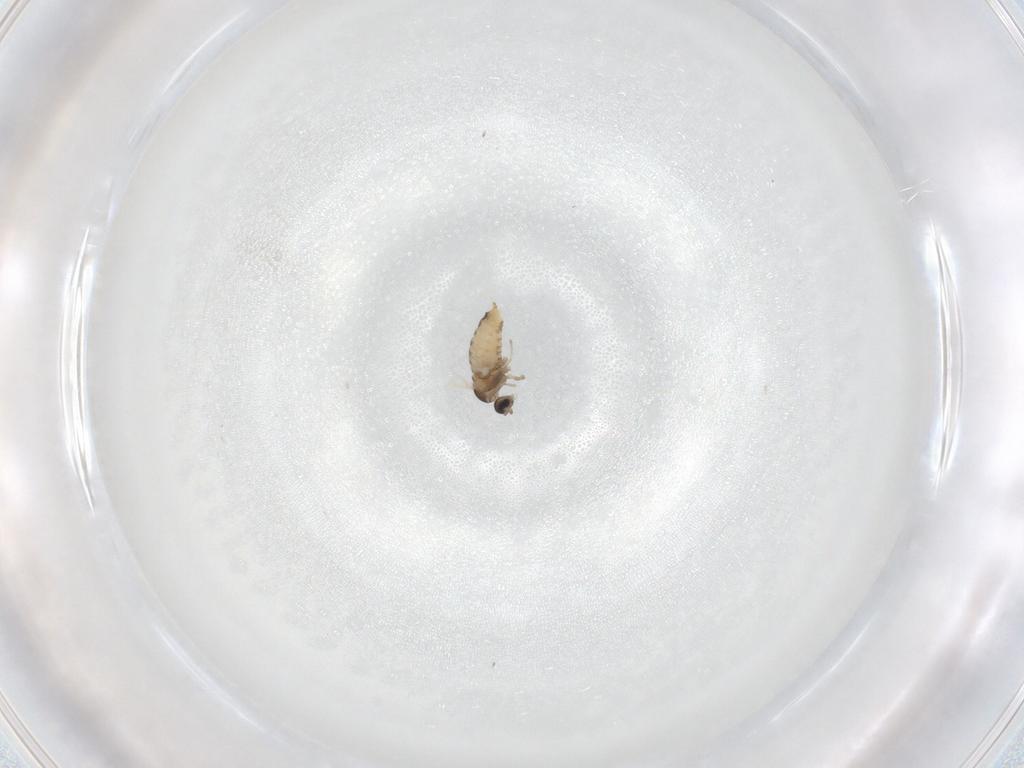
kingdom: Animalia
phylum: Arthropoda
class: Insecta
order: Diptera
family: Cecidomyiidae
